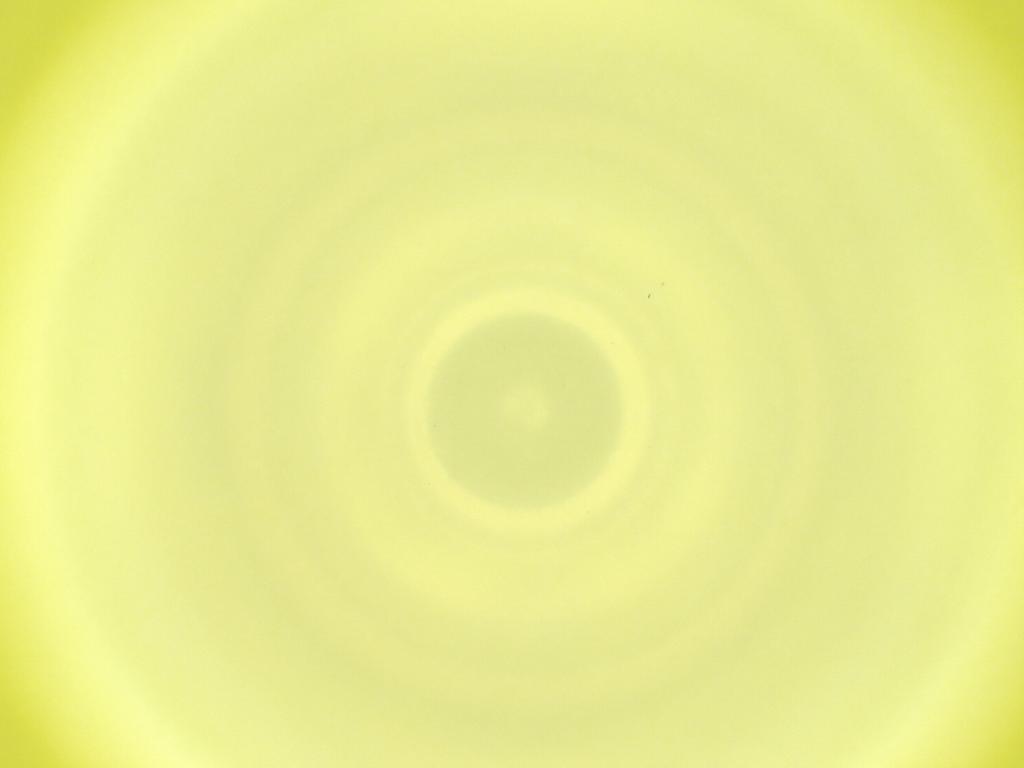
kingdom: Animalia
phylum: Arthropoda
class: Insecta
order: Diptera
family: Cecidomyiidae
